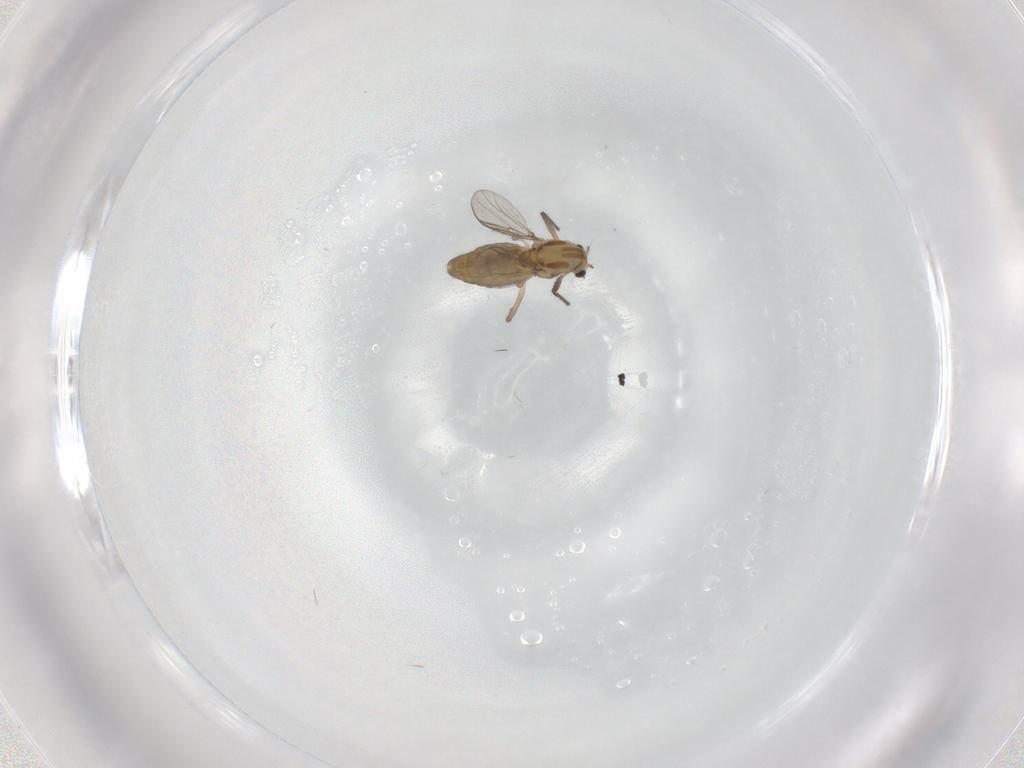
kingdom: Animalia
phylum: Arthropoda
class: Insecta
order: Diptera
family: Chironomidae
